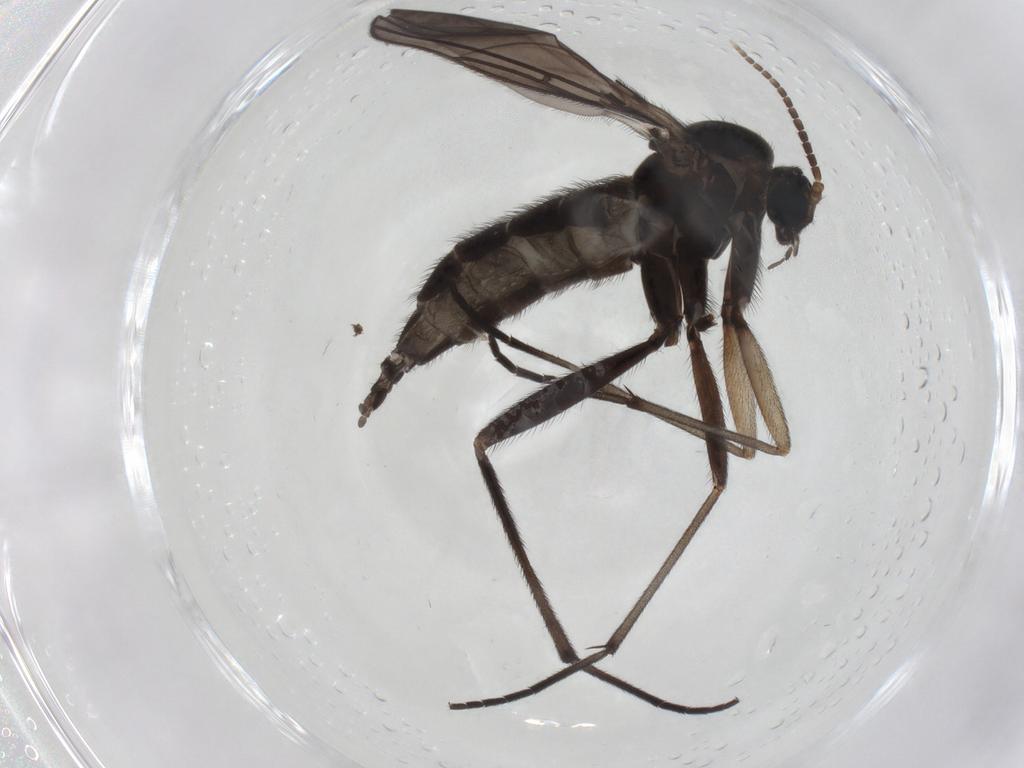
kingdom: Animalia
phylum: Arthropoda
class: Insecta
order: Diptera
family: Sciaridae
